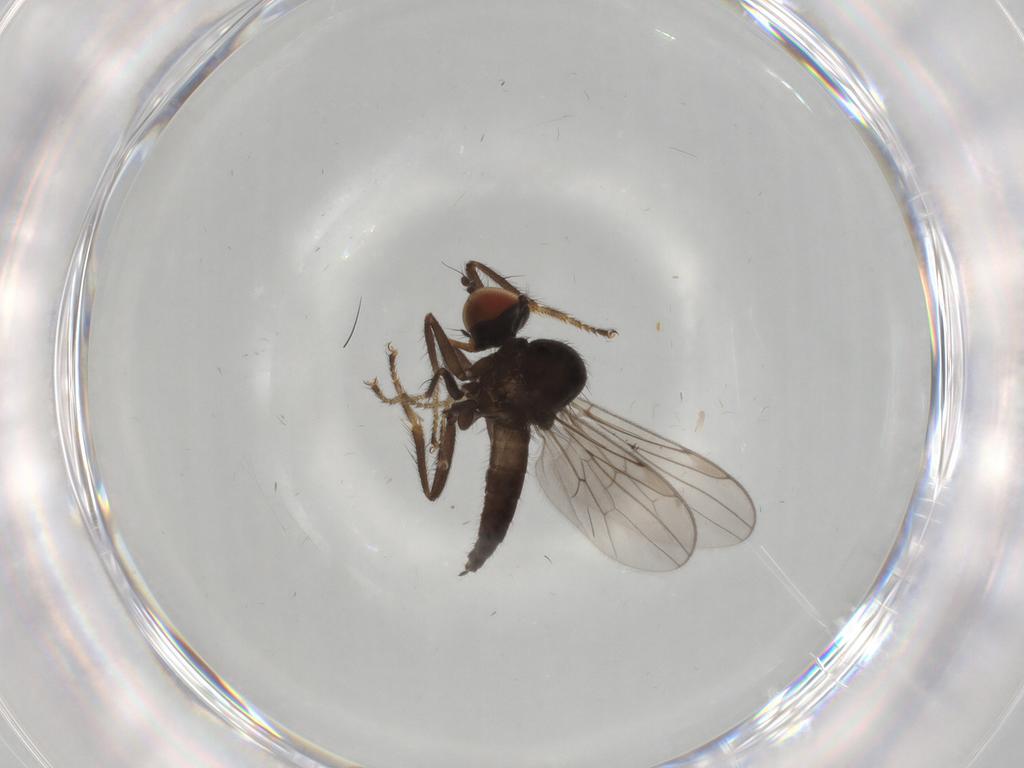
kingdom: Animalia
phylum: Arthropoda
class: Insecta
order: Diptera
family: Hybotidae
